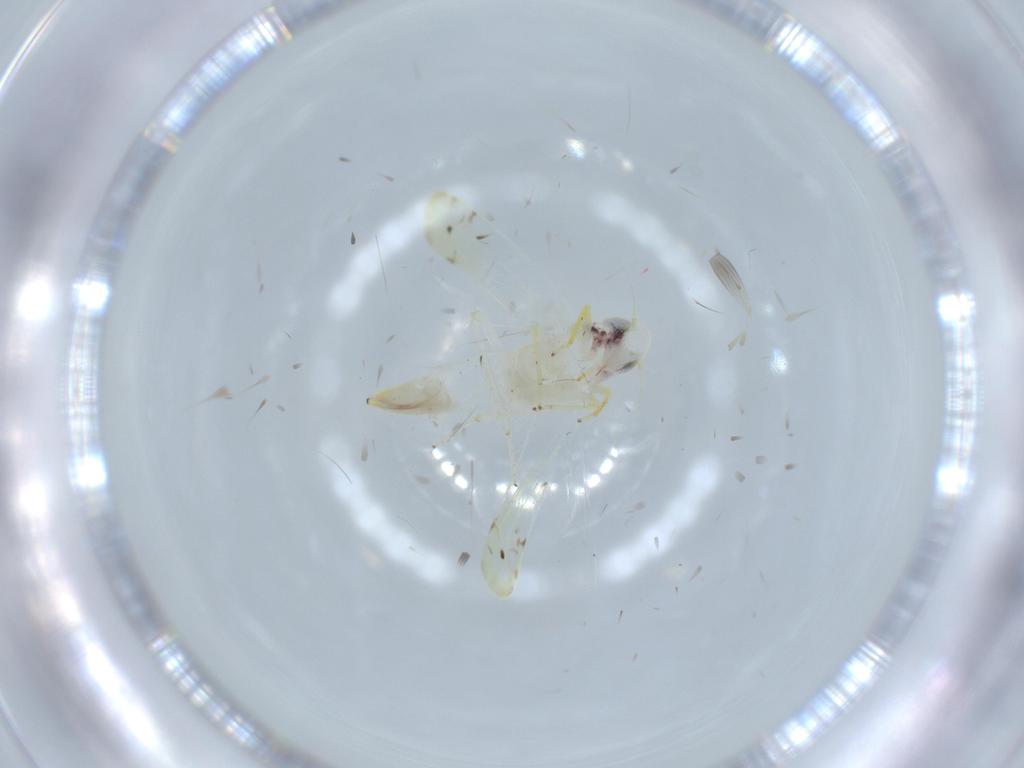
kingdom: Animalia
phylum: Arthropoda
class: Insecta
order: Hemiptera
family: Cicadellidae
